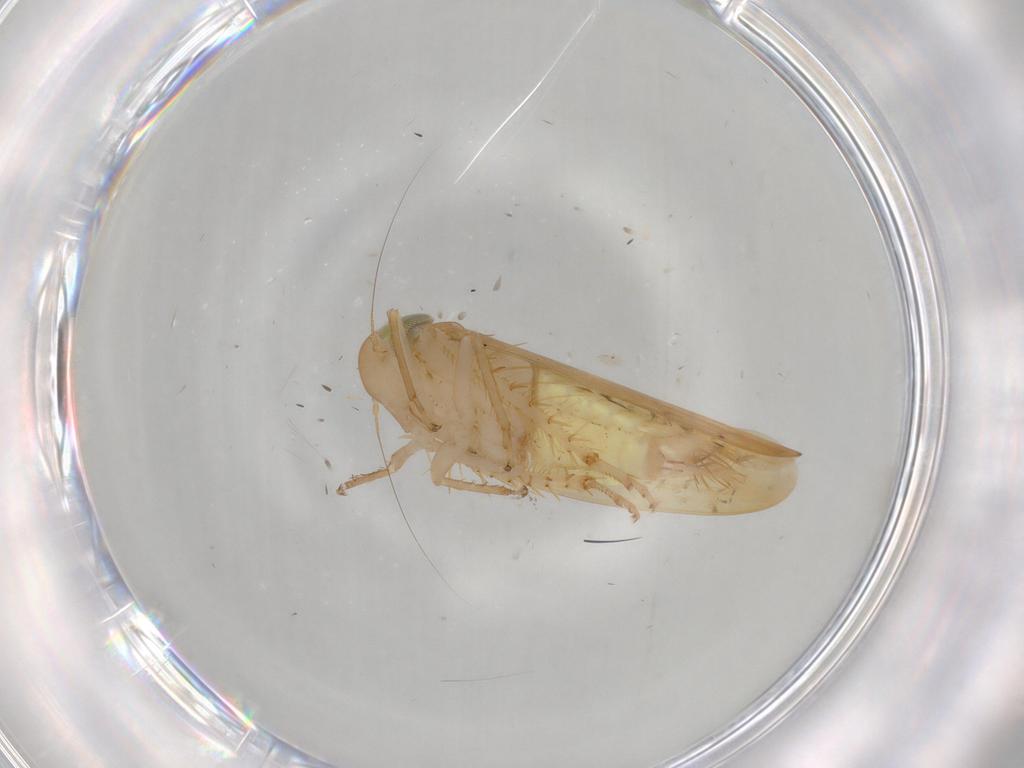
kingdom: Animalia
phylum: Arthropoda
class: Insecta
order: Hemiptera
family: Cicadellidae
